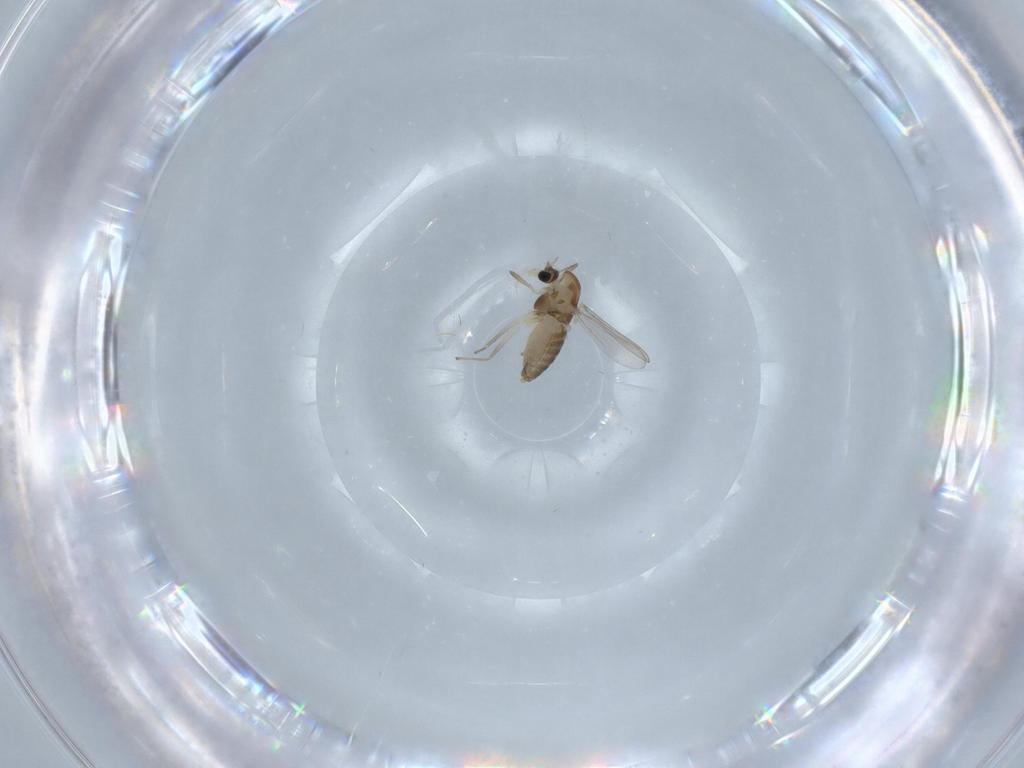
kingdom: Animalia
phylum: Arthropoda
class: Insecta
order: Diptera
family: Chironomidae
